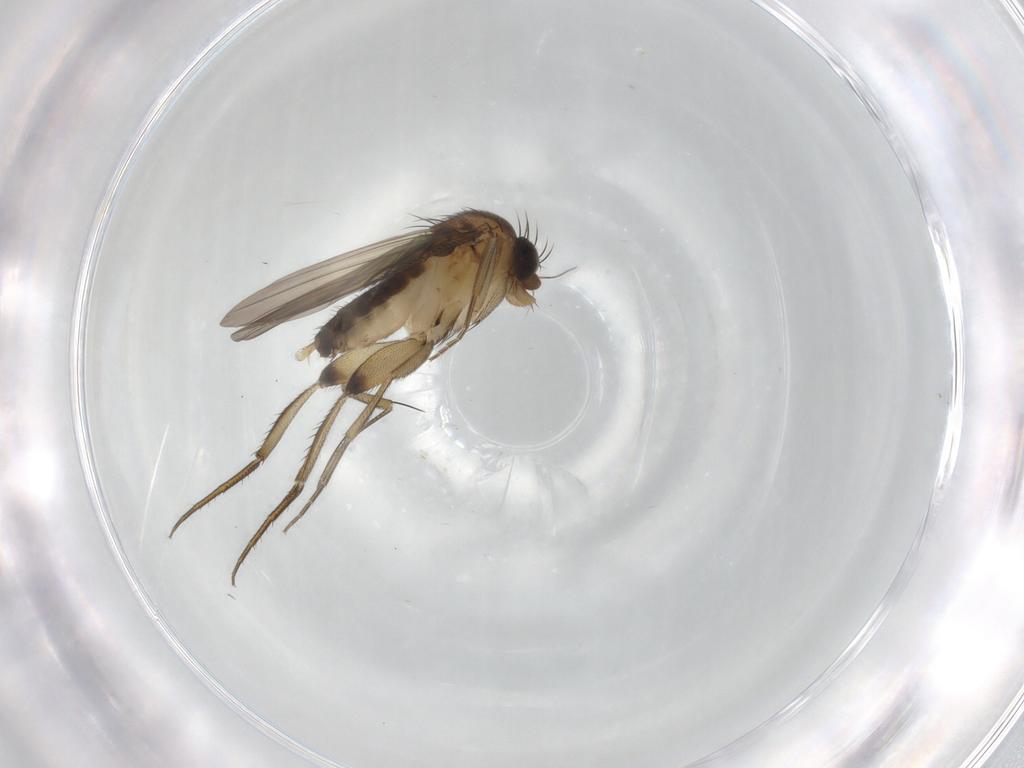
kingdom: Animalia
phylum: Arthropoda
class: Insecta
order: Diptera
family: Phoridae
